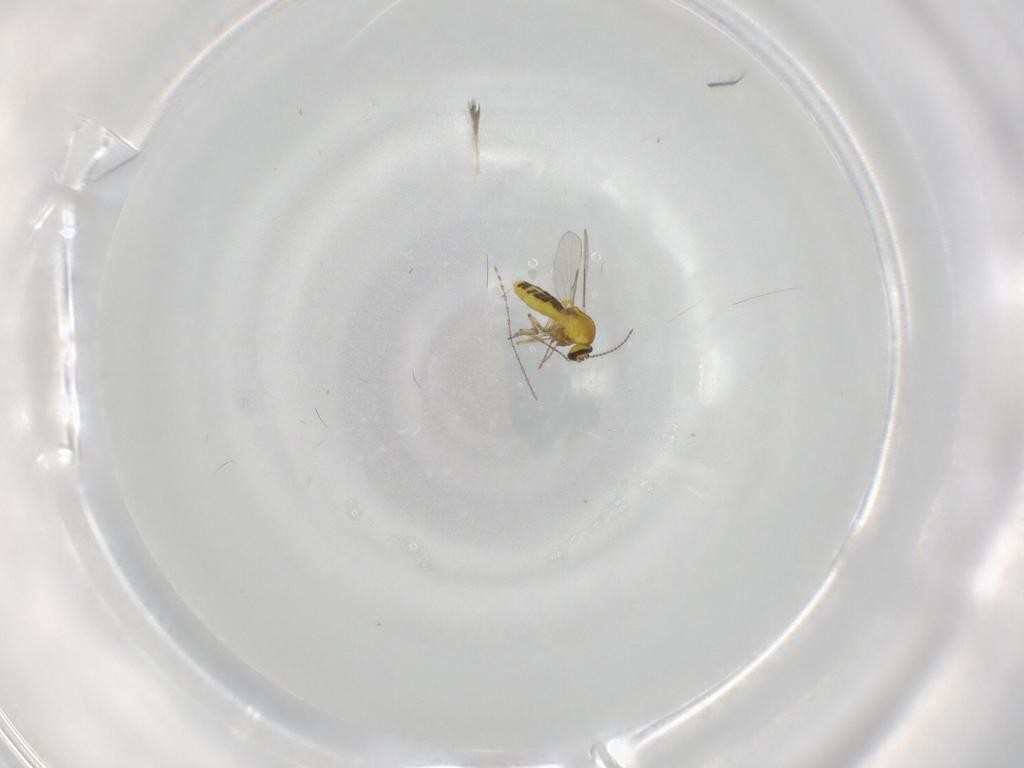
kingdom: Animalia
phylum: Arthropoda
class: Insecta
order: Diptera
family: Ceratopogonidae
